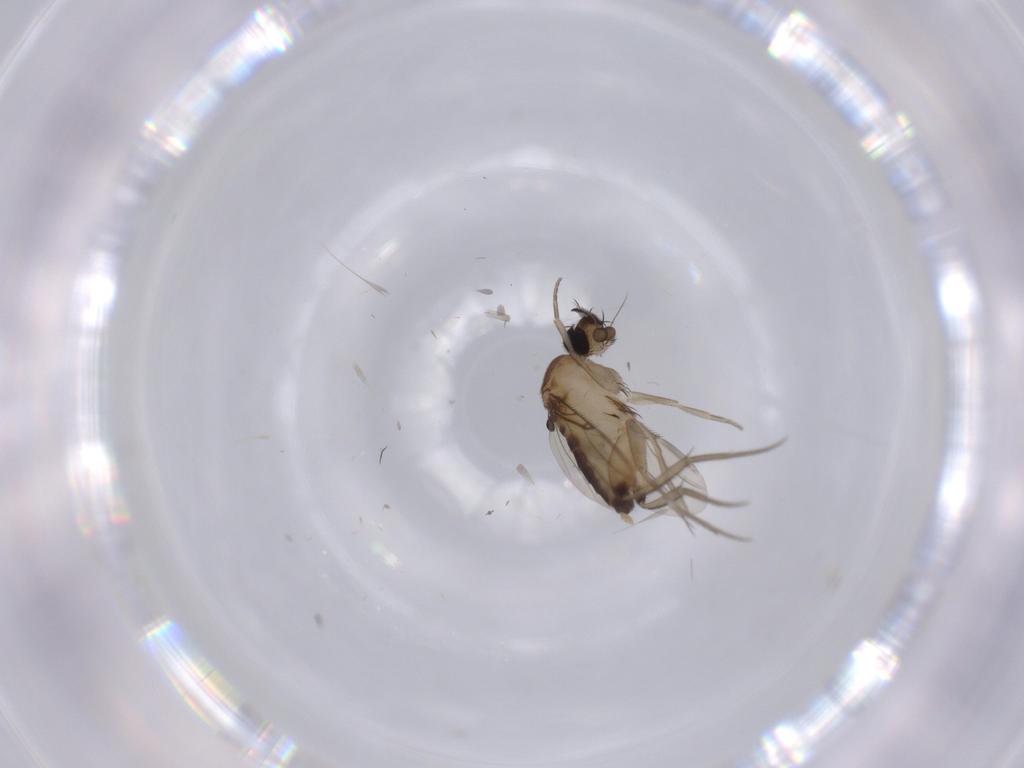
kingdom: Animalia
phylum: Arthropoda
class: Insecta
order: Diptera
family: Phoridae
